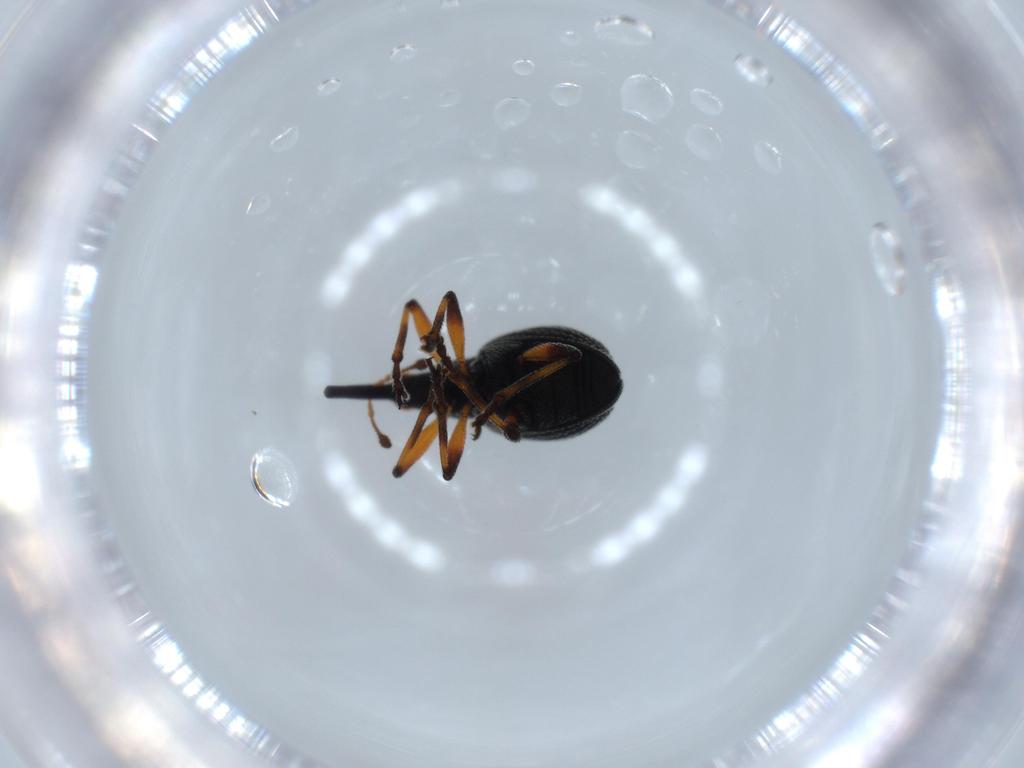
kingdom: Animalia
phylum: Arthropoda
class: Insecta
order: Coleoptera
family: Brentidae
